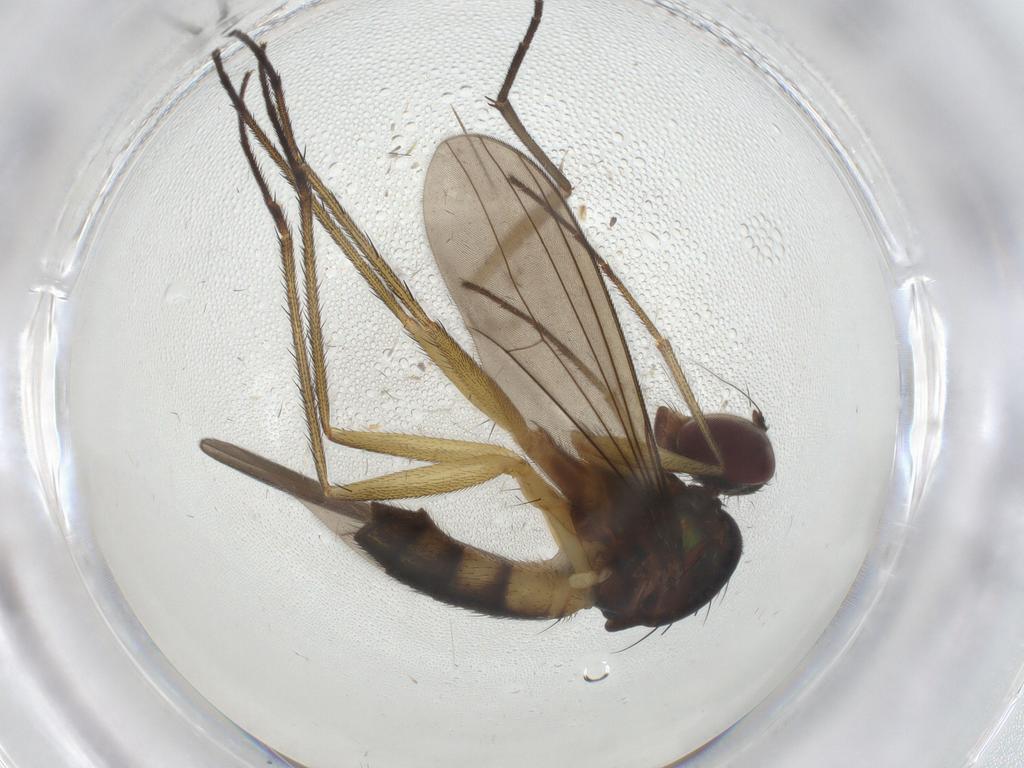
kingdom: Animalia
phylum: Arthropoda
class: Insecta
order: Diptera
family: Sciaridae
